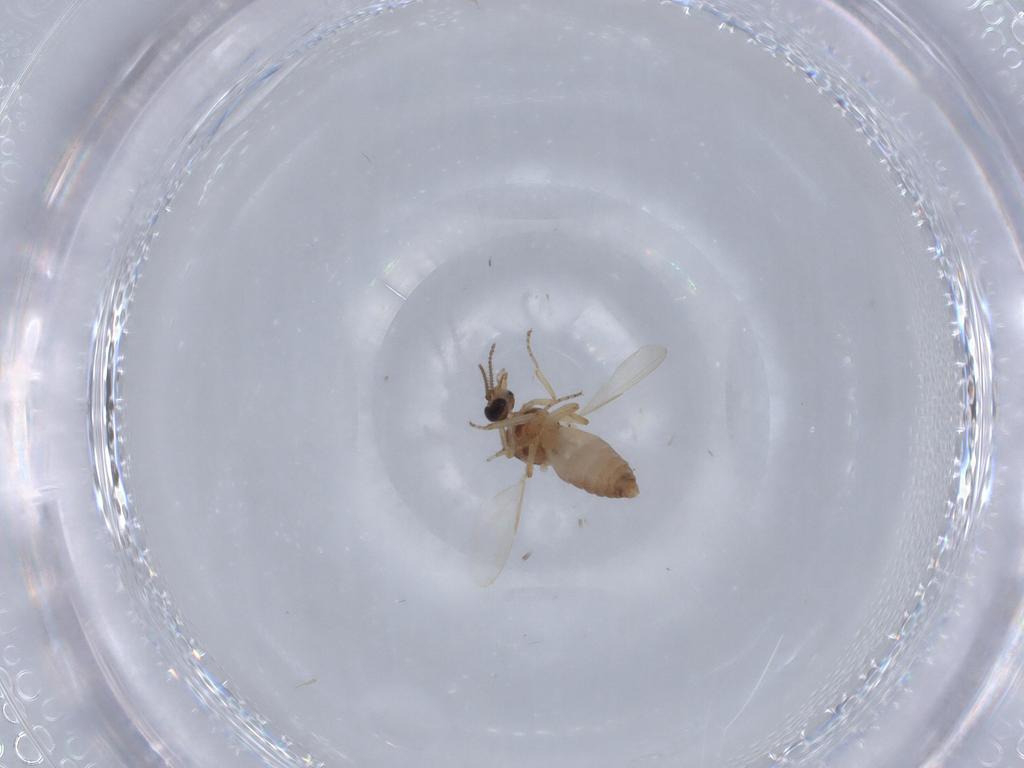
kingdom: Animalia
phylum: Arthropoda
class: Insecta
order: Diptera
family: Ceratopogonidae
